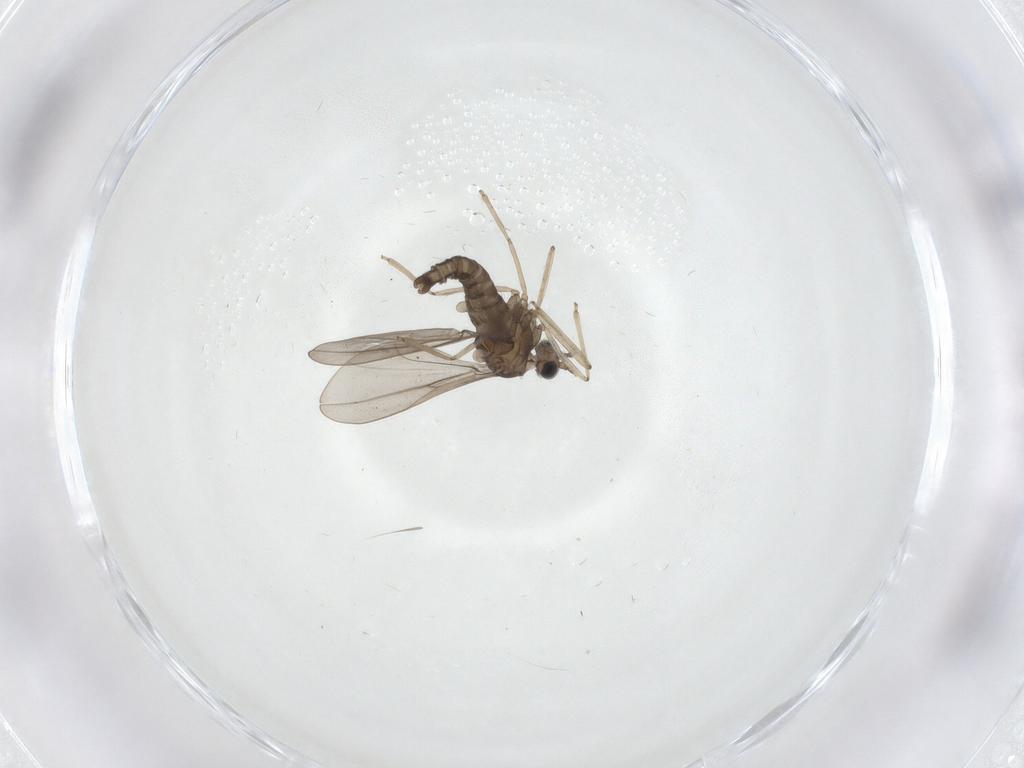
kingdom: Animalia
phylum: Arthropoda
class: Insecta
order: Diptera
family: Cecidomyiidae
